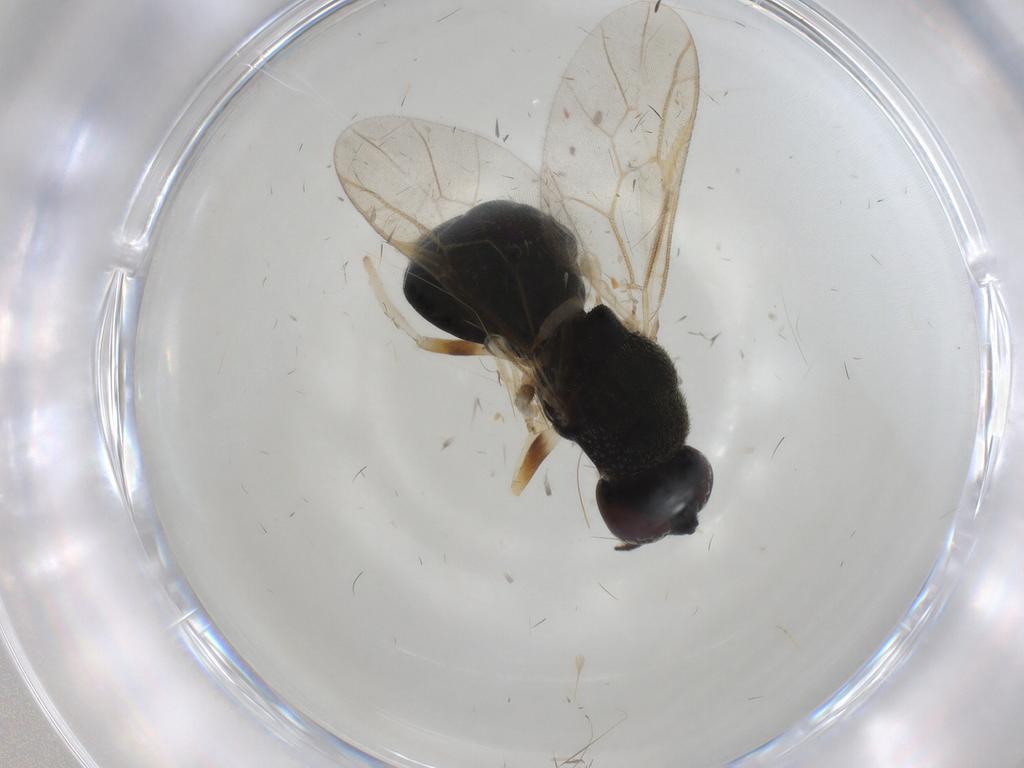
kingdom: Animalia
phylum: Arthropoda
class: Insecta
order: Diptera
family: Stratiomyidae
